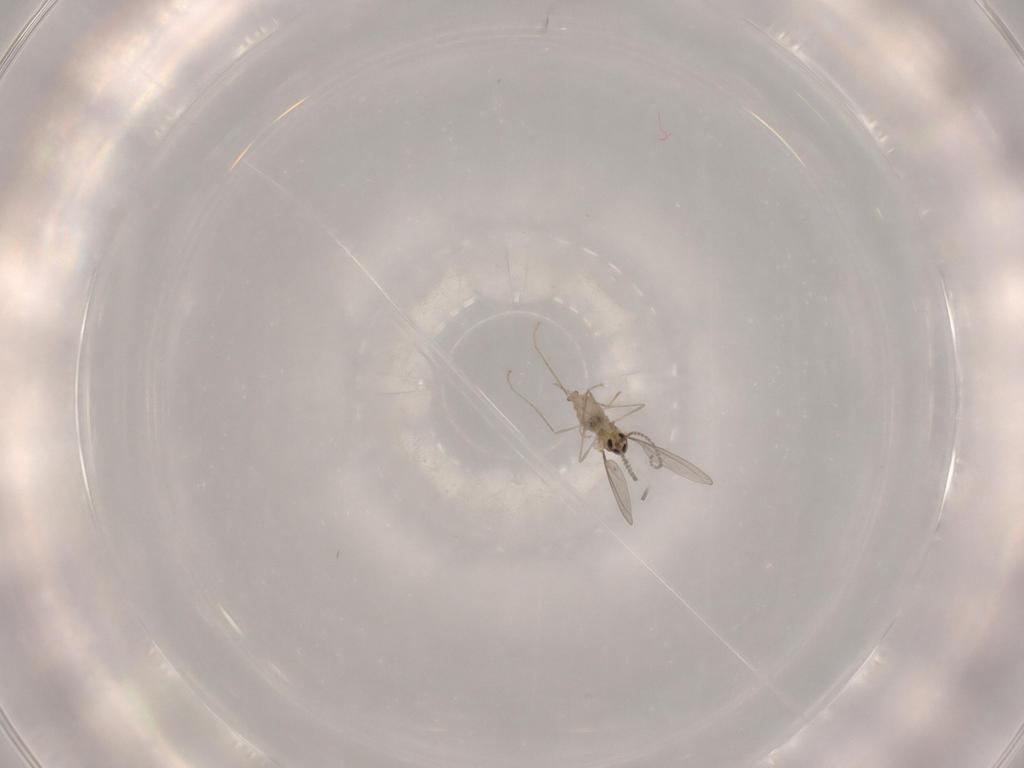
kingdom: Animalia
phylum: Arthropoda
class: Insecta
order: Diptera
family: Cecidomyiidae
